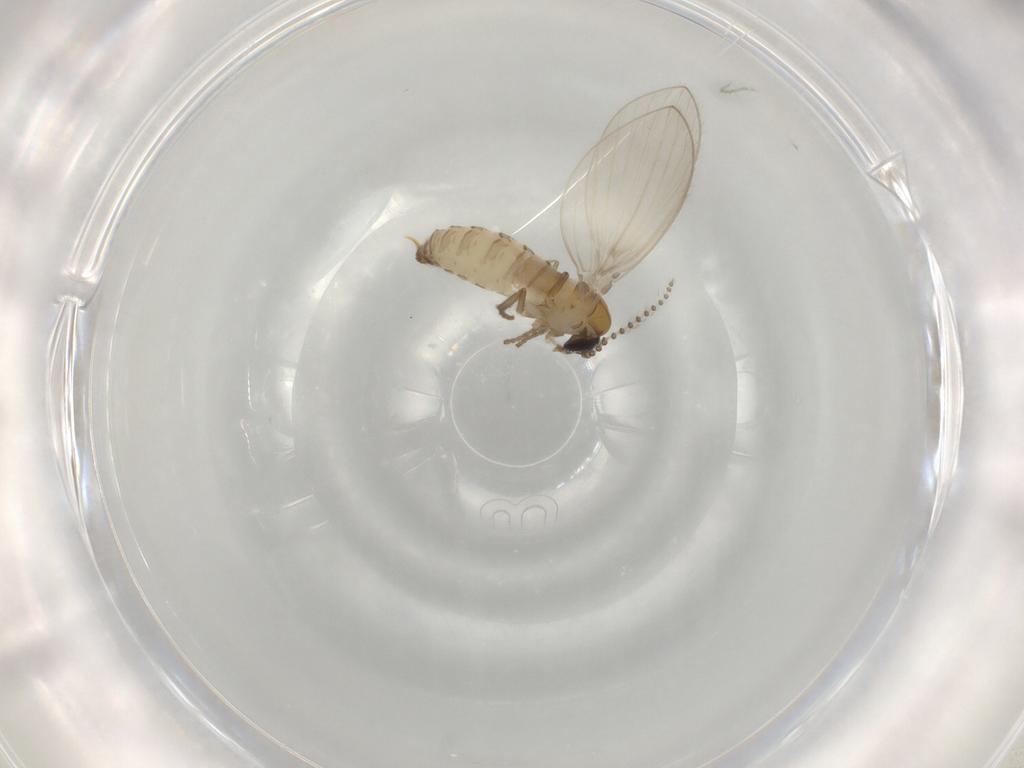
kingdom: Animalia
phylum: Arthropoda
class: Insecta
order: Diptera
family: Psychodidae
